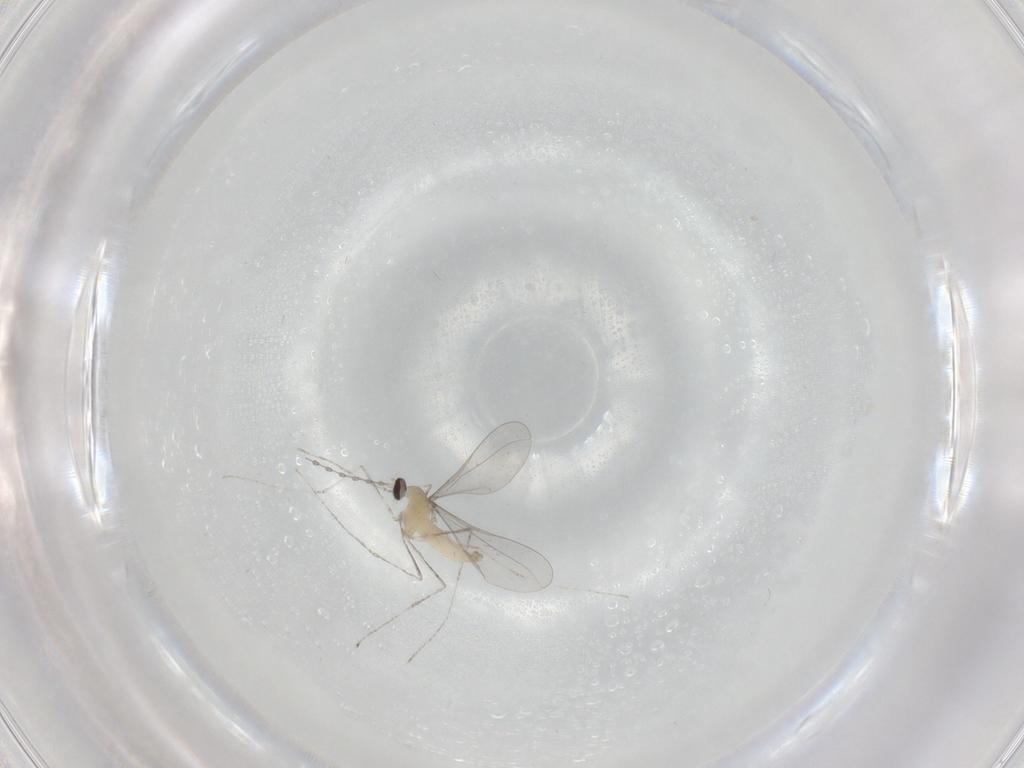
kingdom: Animalia
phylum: Arthropoda
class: Insecta
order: Diptera
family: Cecidomyiidae
